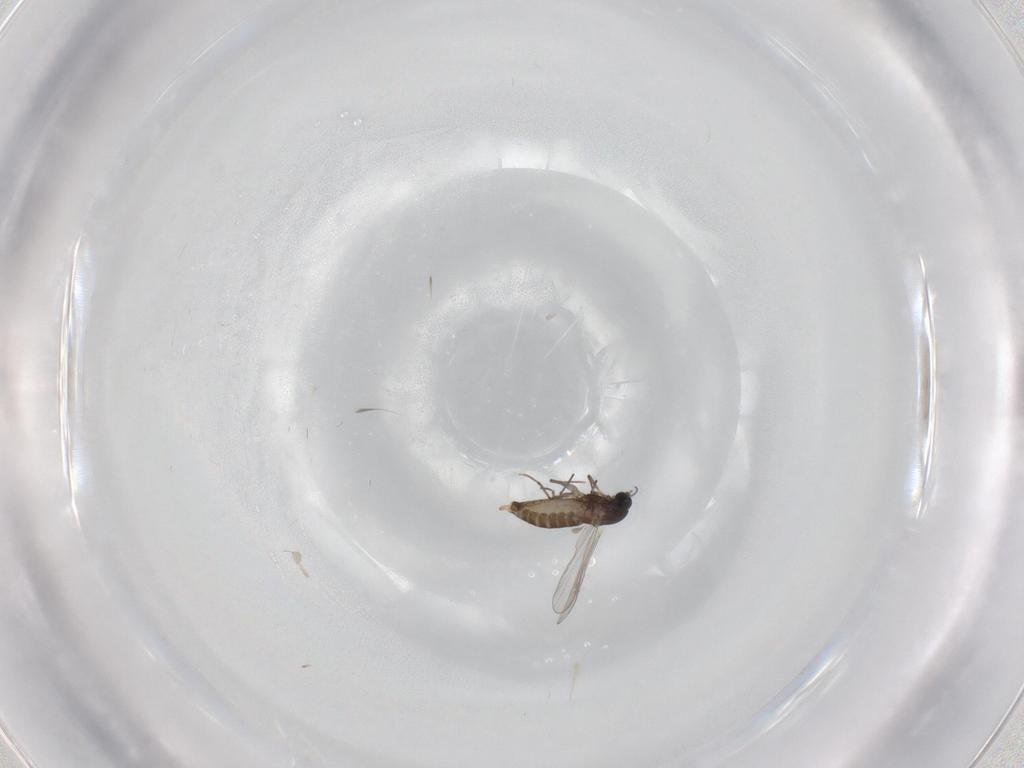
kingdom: Animalia
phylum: Arthropoda
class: Insecta
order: Diptera
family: Chironomidae
